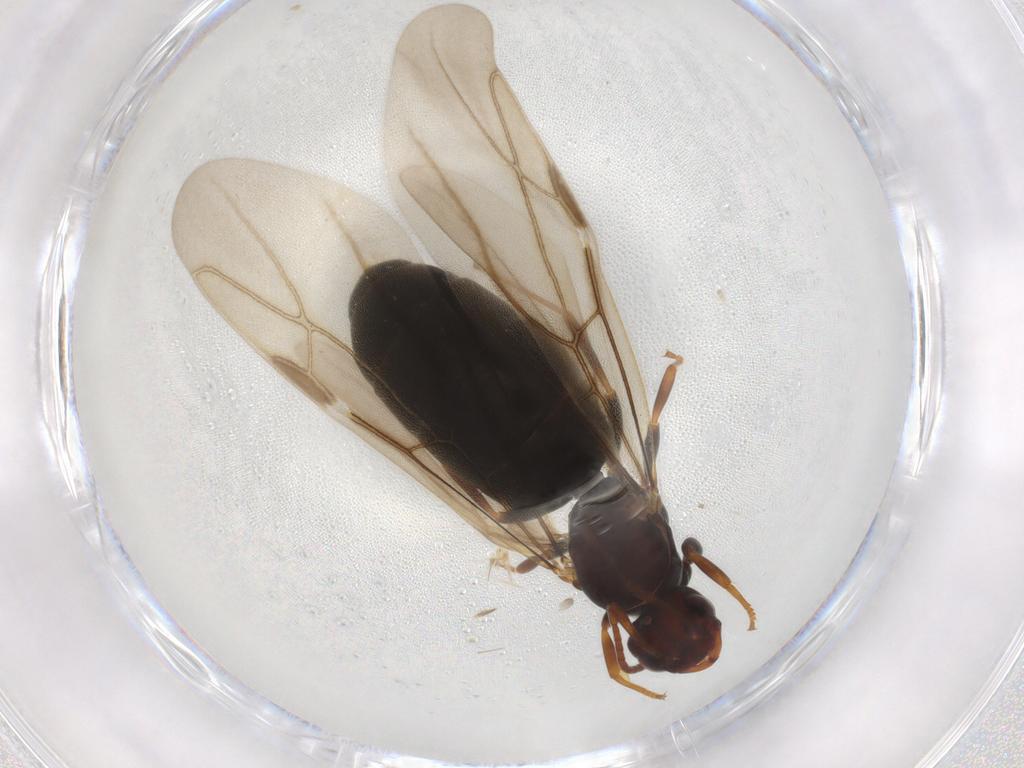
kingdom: Animalia
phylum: Arthropoda
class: Insecta
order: Hymenoptera
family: Formicidae
